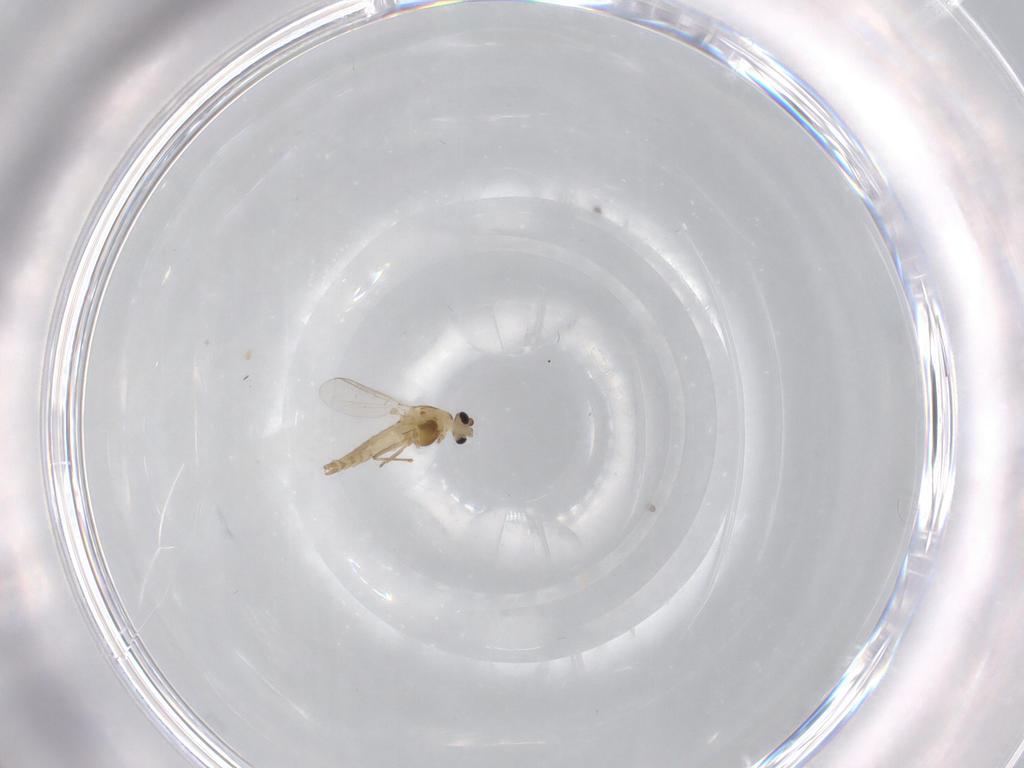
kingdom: Animalia
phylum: Arthropoda
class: Insecta
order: Diptera
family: Chironomidae
